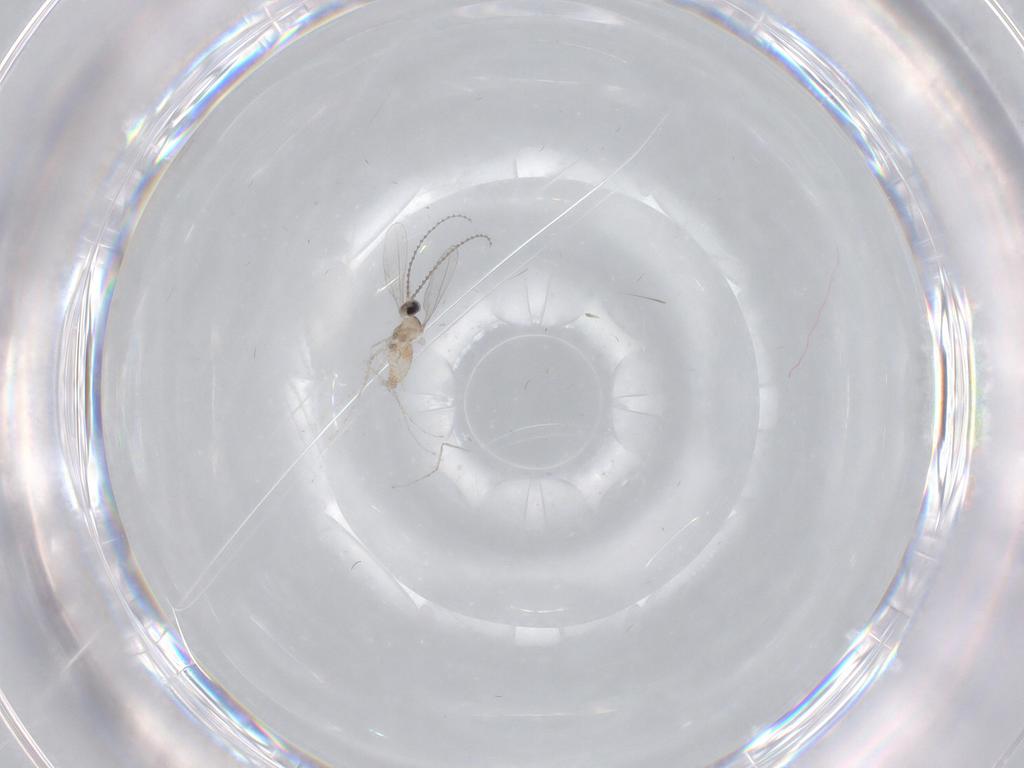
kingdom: Animalia
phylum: Arthropoda
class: Insecta
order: Diptera
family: Cecidomyiidae
